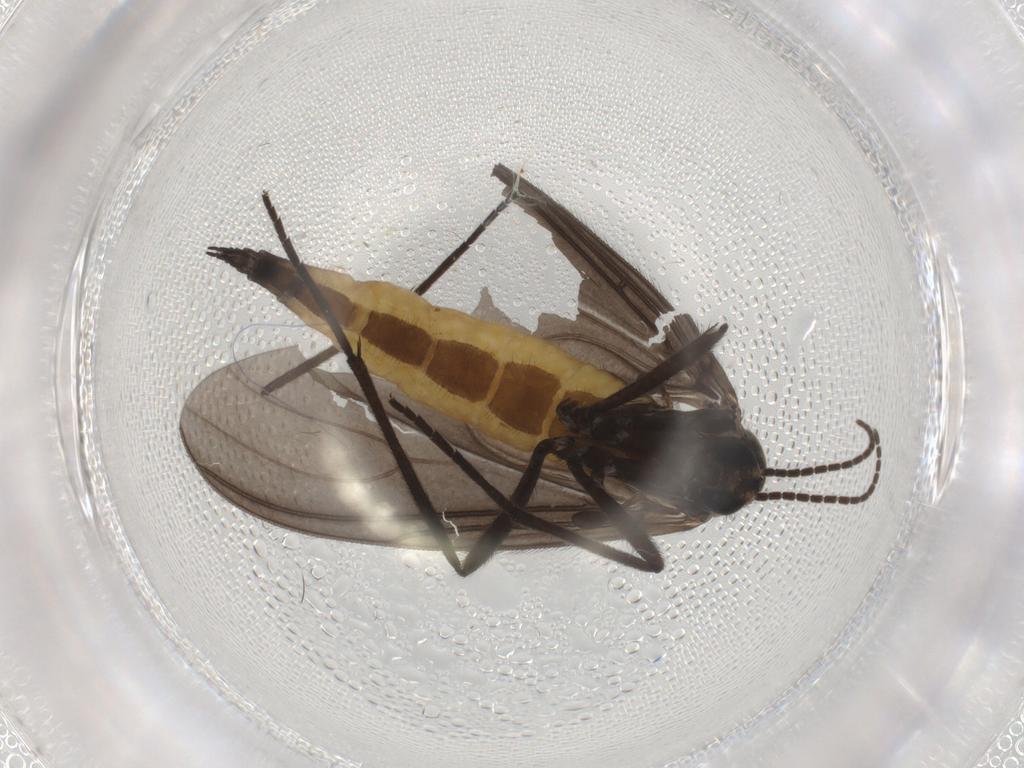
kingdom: Animalia
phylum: Arthropoda
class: Insecta
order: Diptera
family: Sciaridae
